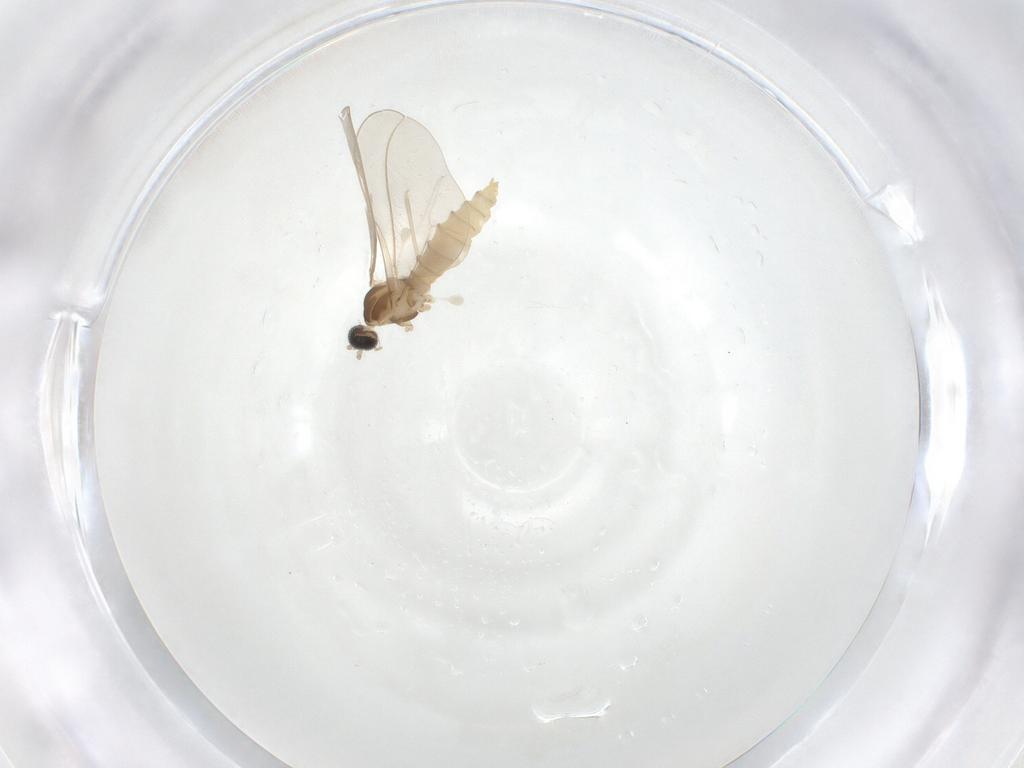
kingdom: Animalia
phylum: Arthropoda
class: Insecta
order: Diptera
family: Cecidomyiidae
